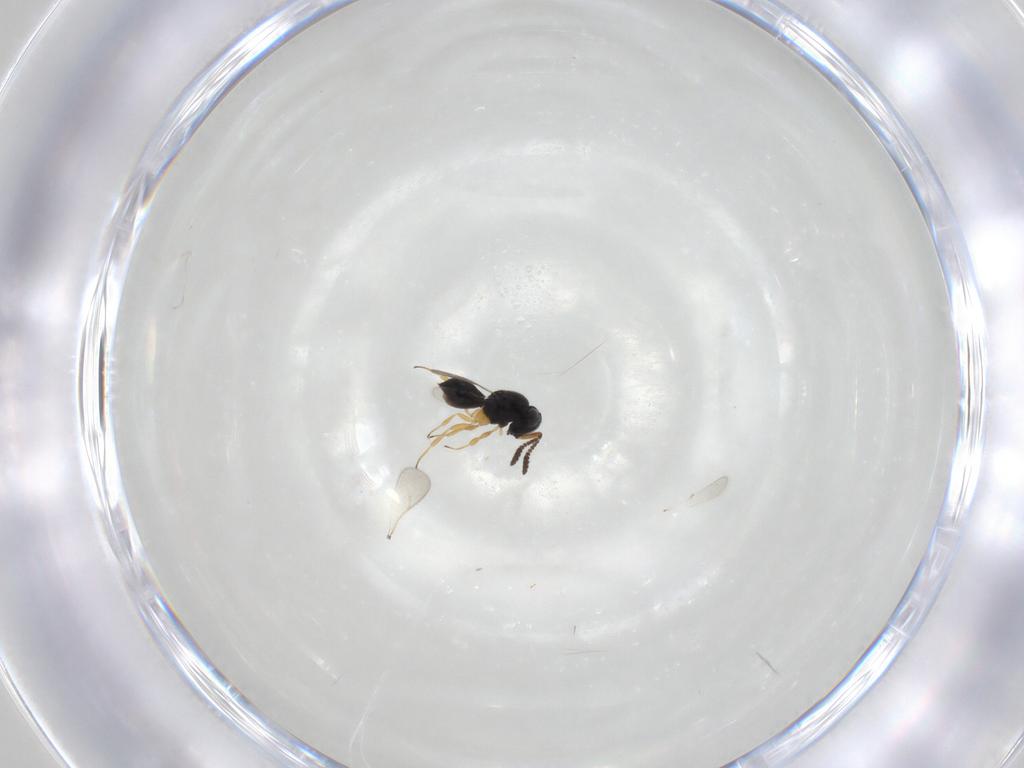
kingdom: Animalia
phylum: Arthropoda
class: Insecta
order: Hymenoptera
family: Scelionidae
